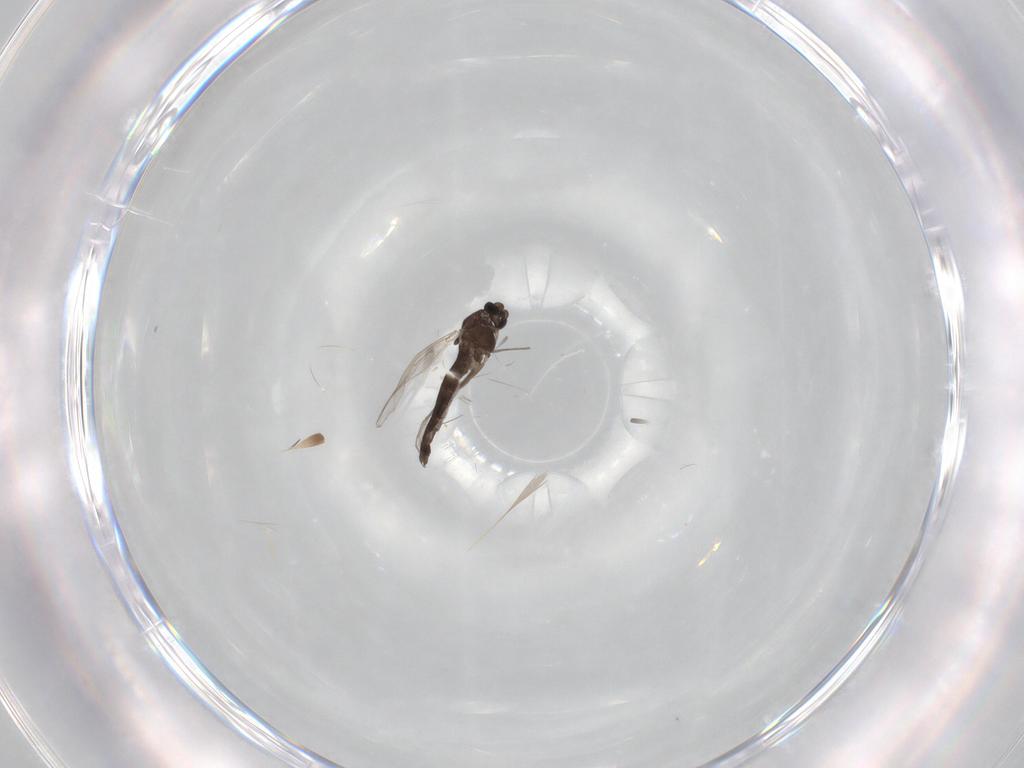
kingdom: Animalia
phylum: Arthropoda
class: Insecta
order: Diptera
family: Chironomidae
